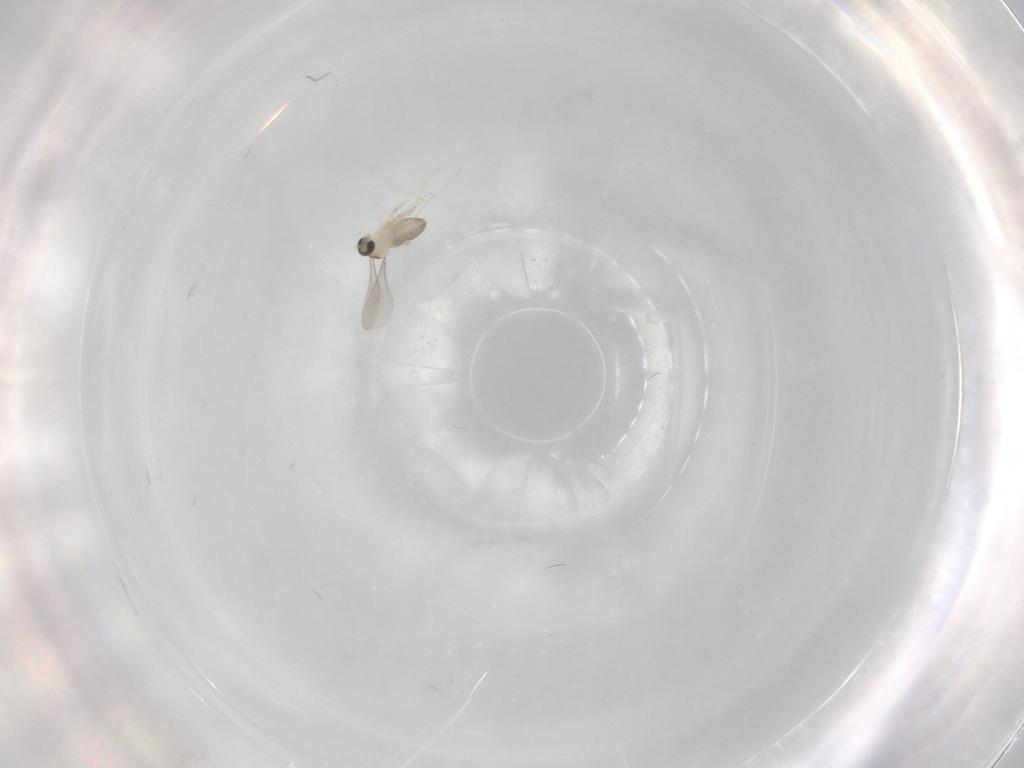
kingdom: Animalia
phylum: Arthropoda
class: Insecta
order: Diptera
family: Cecidomyiidae
